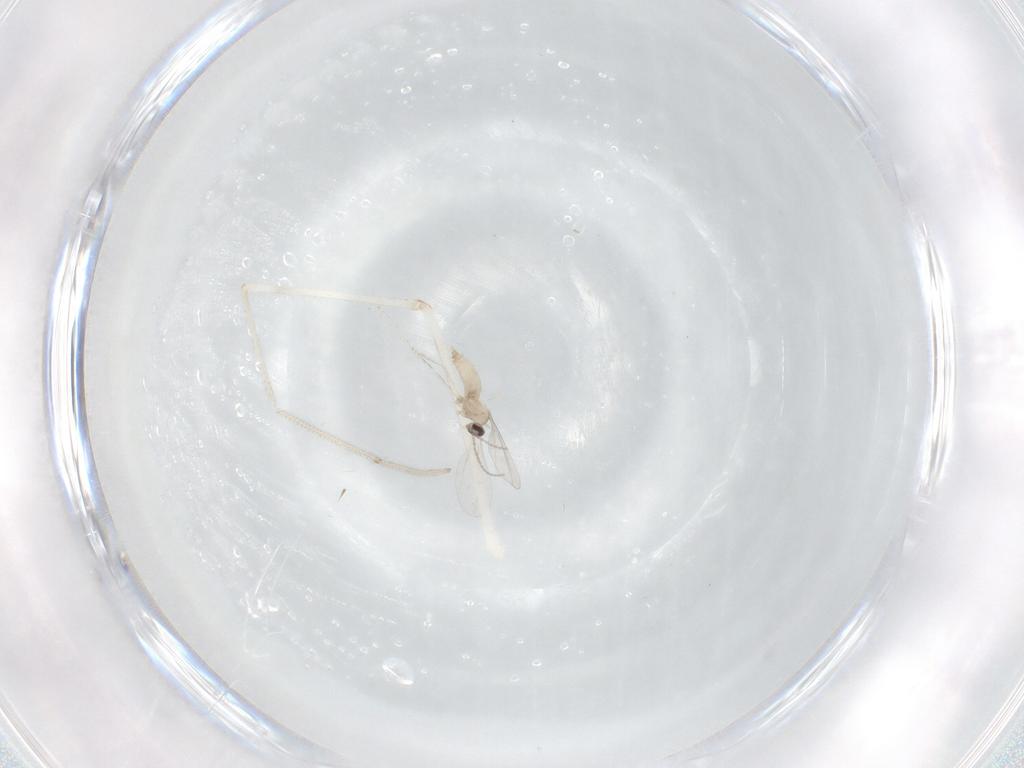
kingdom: Animalia
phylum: Arthropoda
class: Insecta
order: Diptera
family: Cecidomyiidae
